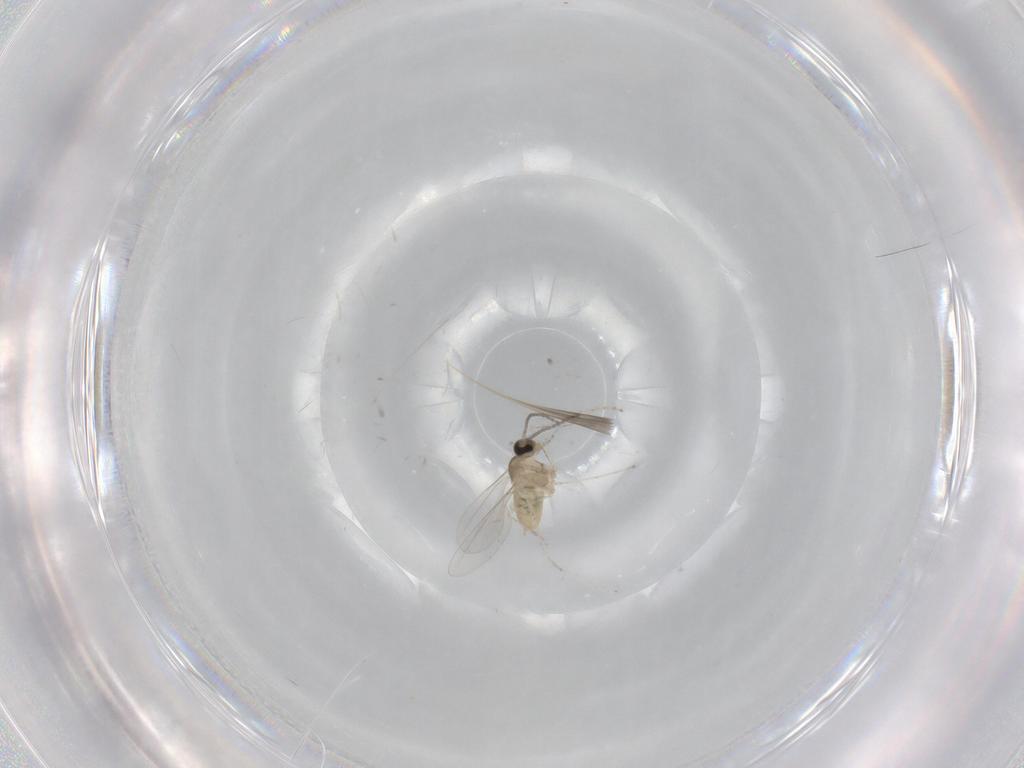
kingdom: Animalia
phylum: Arthropoda
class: Insecta
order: Diptera
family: Cecidomyiidae
